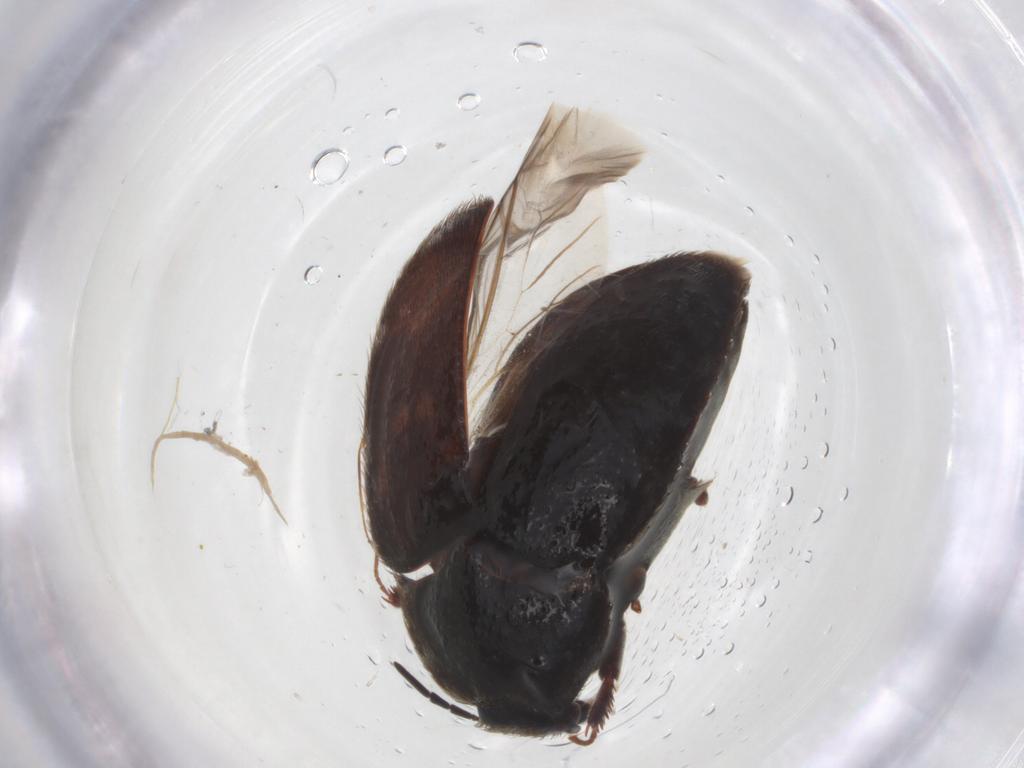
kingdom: Animalia
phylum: Arthropoda
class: Insecta
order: Coleoptera
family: Dermestidae
